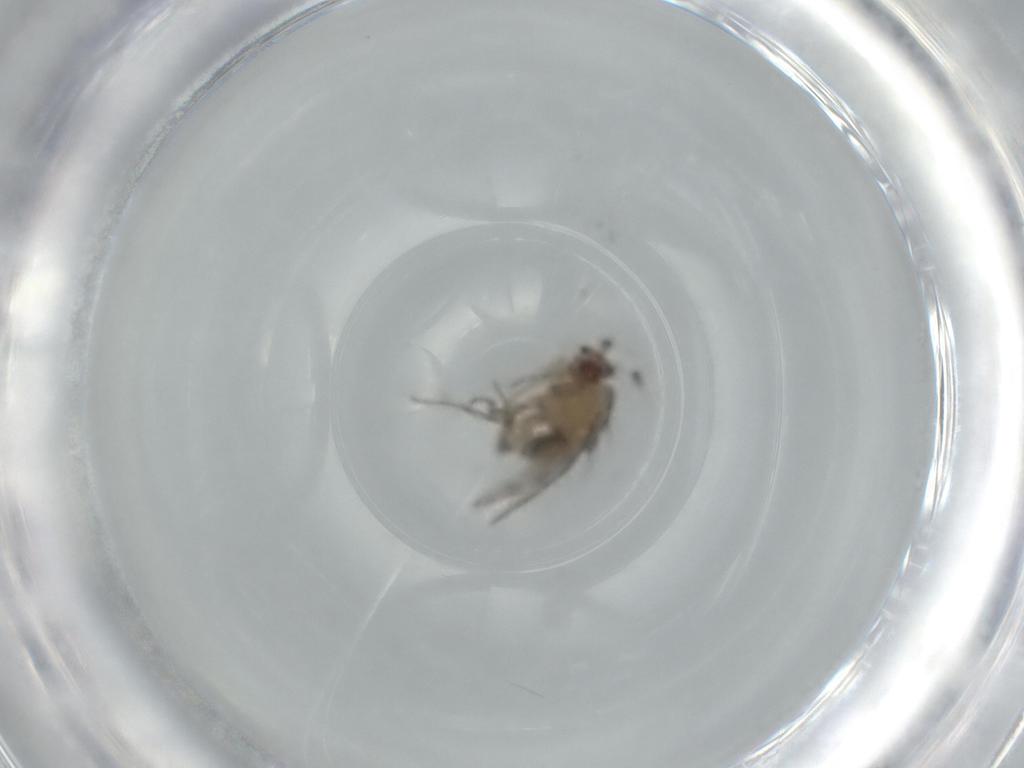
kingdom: Animalia
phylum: Arthropoda
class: Insecta
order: Diptera
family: Sphaeroceridae
